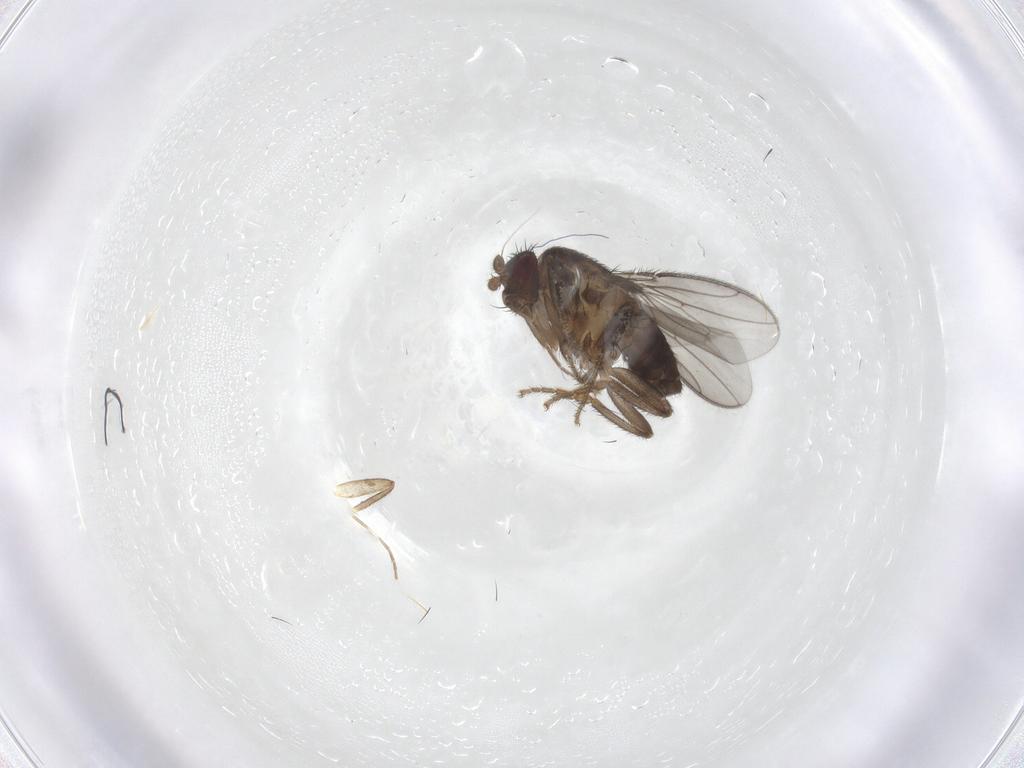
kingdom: Animalia
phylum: Arthropoda
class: Insecta
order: Diptera
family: Sphaeroceridae
